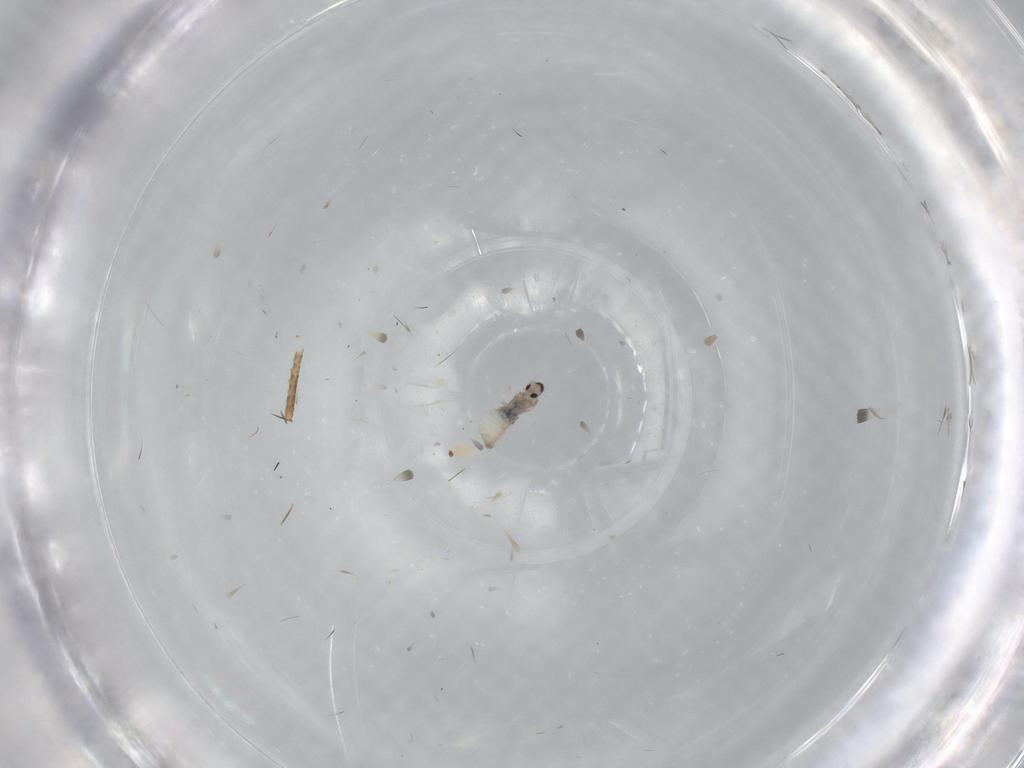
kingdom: Animalia
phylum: Arthropoda
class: Insecta
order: Diptera
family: Cecidomyiidae
